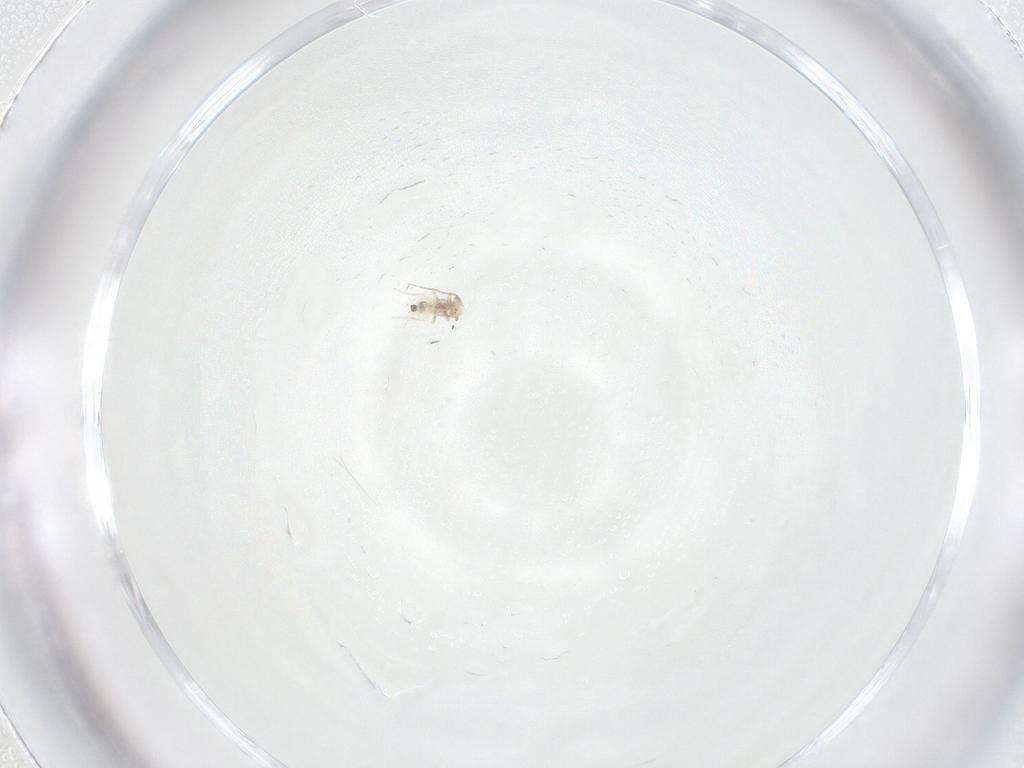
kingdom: Animalia
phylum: Arthropoda
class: Insecta
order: Psocodea
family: Lepidopsocidae
